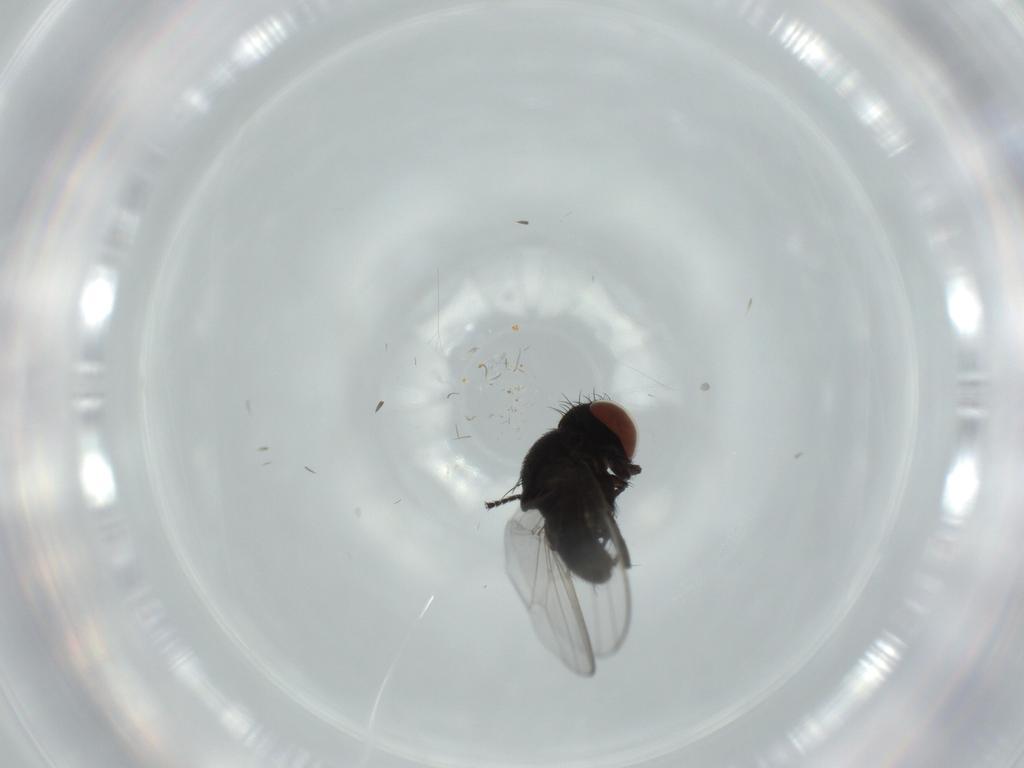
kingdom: Animalia
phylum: Arthropoda
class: Insecta
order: Diptera
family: Milichiidae
